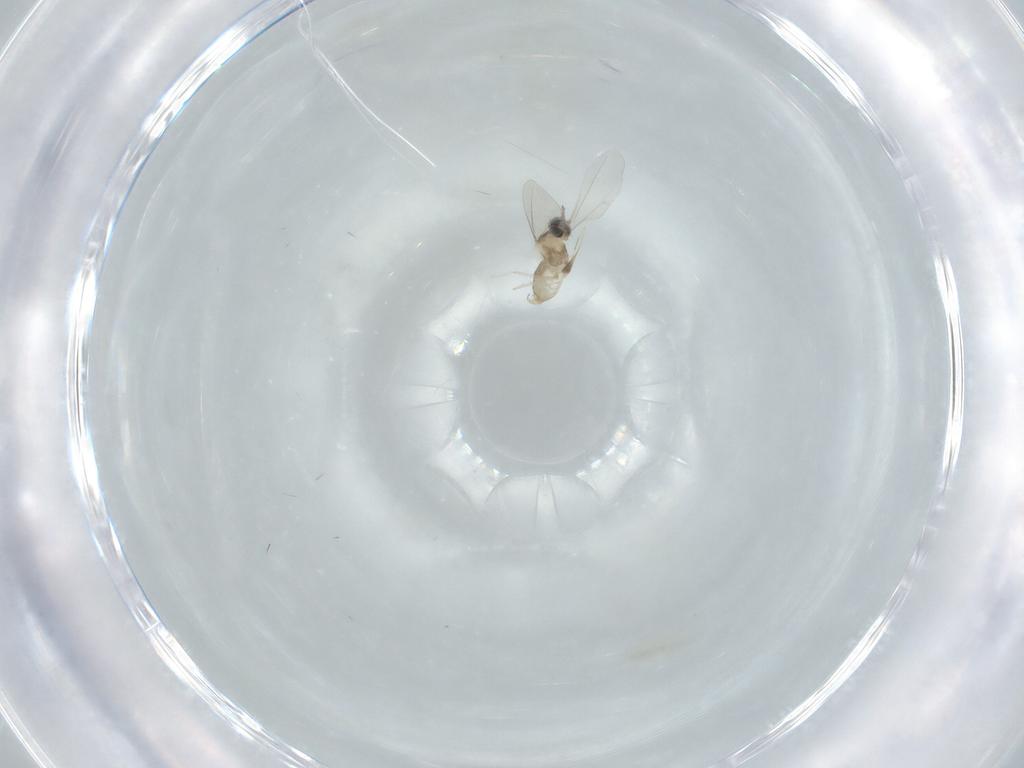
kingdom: Animalia
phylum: Arthropoda
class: Insecta
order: Diptera
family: Cecidomyiidae
